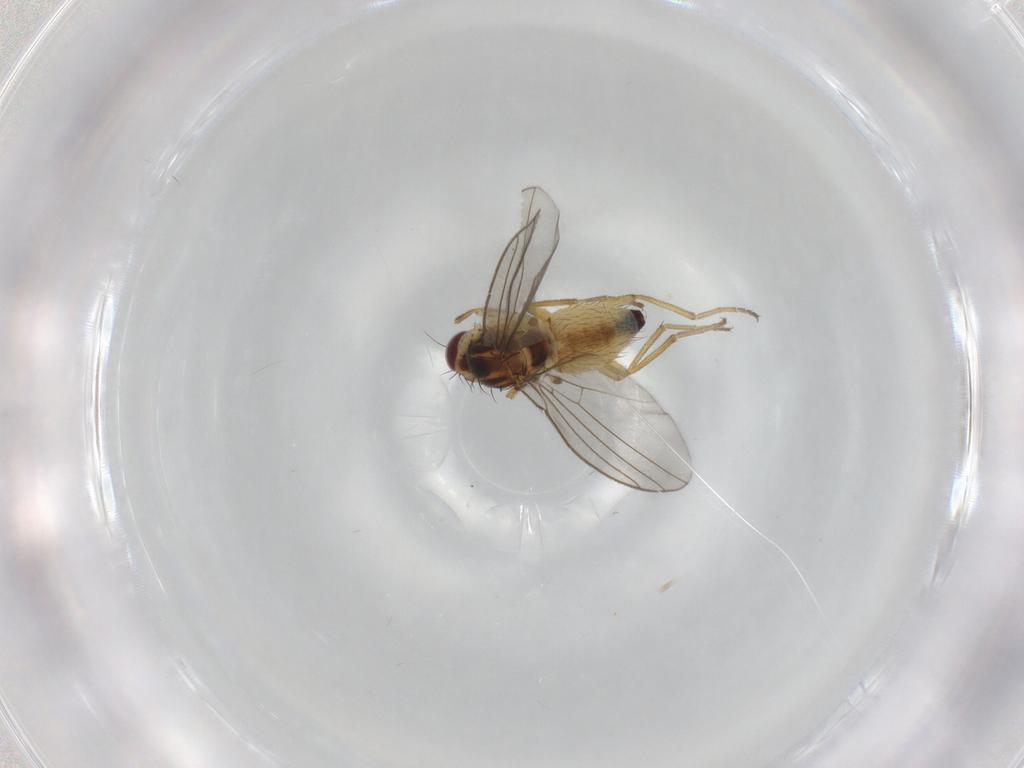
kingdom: Animalia
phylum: Arthropoda
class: Insecta
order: Diptera
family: Agromyzidae
